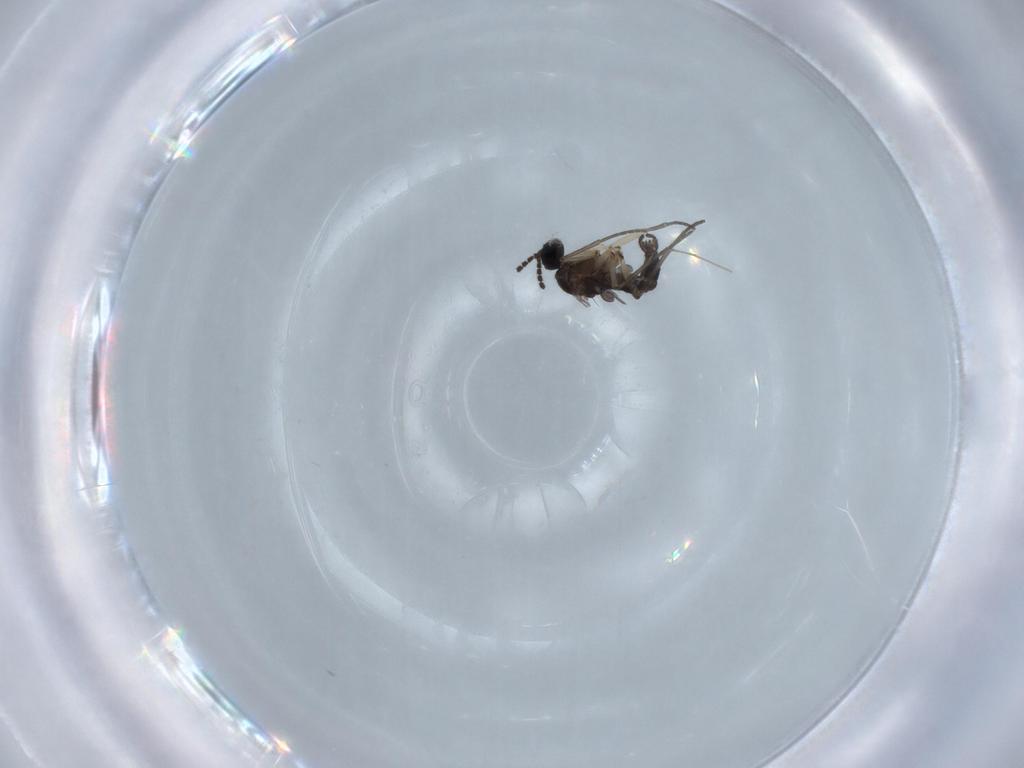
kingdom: Animalia
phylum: Arthropoda
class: Insecta
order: Diptera
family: Sciaridae
